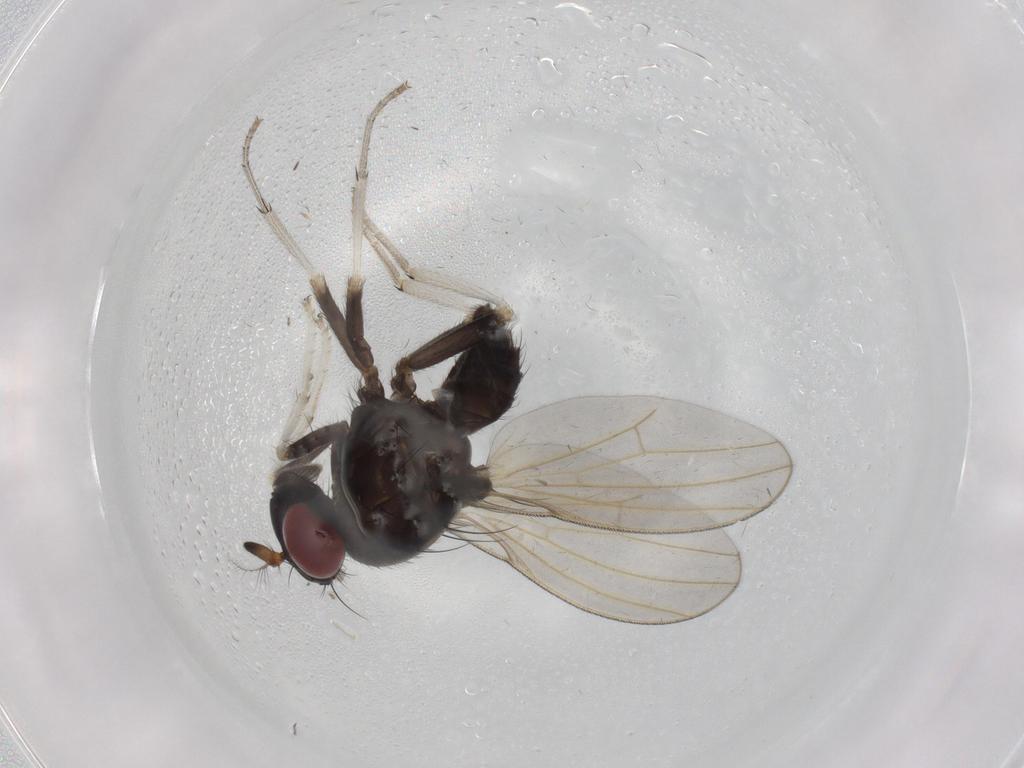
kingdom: Animalia
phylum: Arthropoda
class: Insecta
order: Diptera
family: Lauxaniidae
